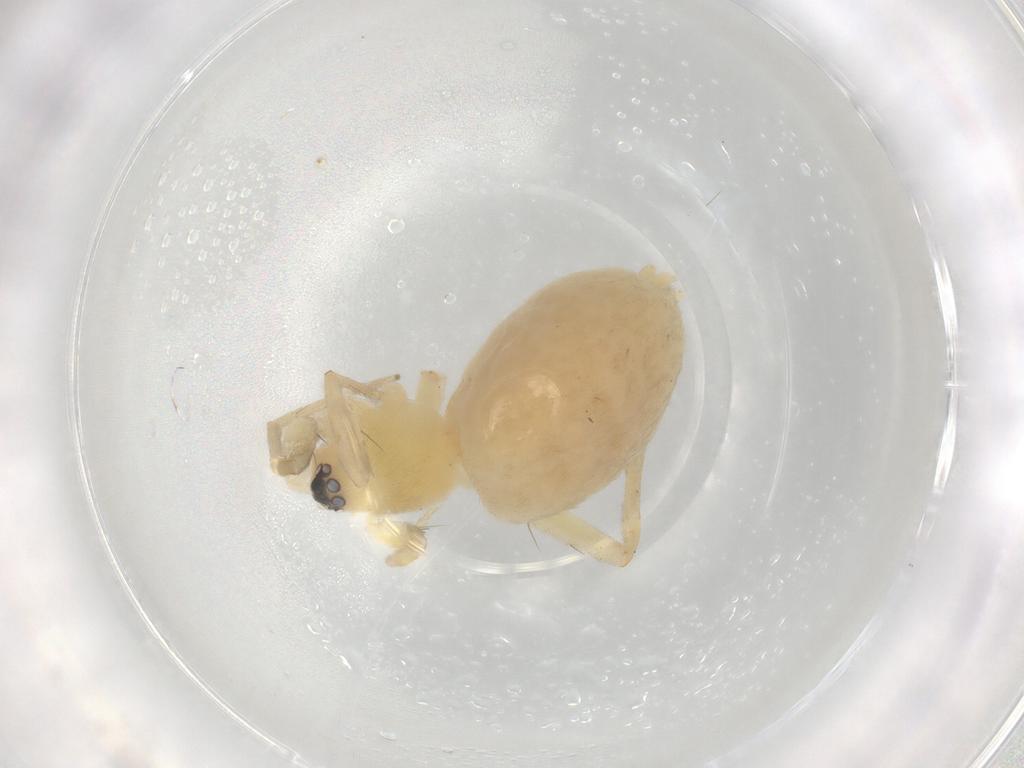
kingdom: Animalia
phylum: Arthropoda
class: Arachnida
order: Araneae
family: Gnaphosidae
